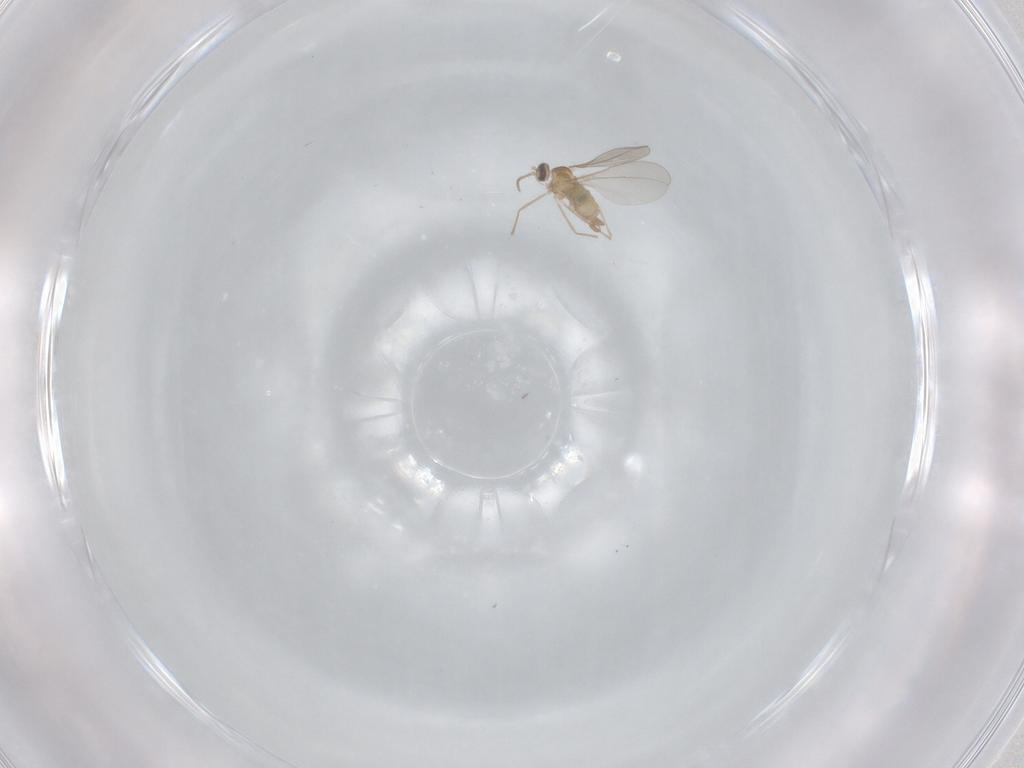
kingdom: Animalia
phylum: Arthropoda
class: Insecta
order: Diptera
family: Cecidomyiidae
